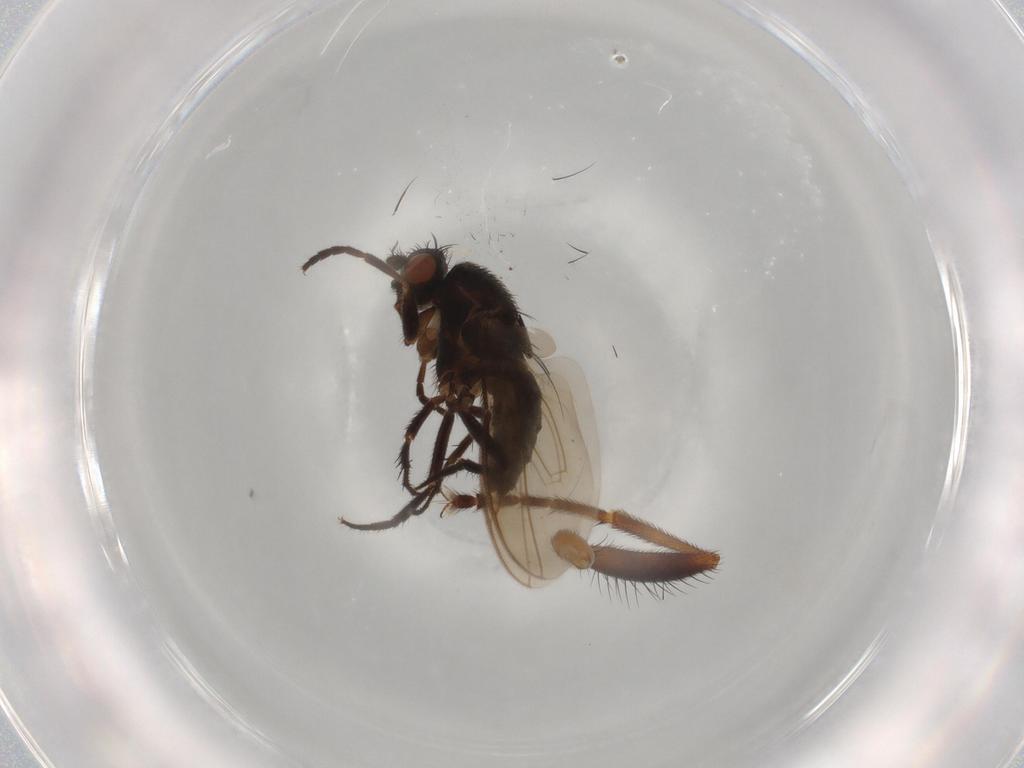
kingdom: Animalia
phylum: Arthropoda
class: Insecta
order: Diptera
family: Sphaeroceridae
